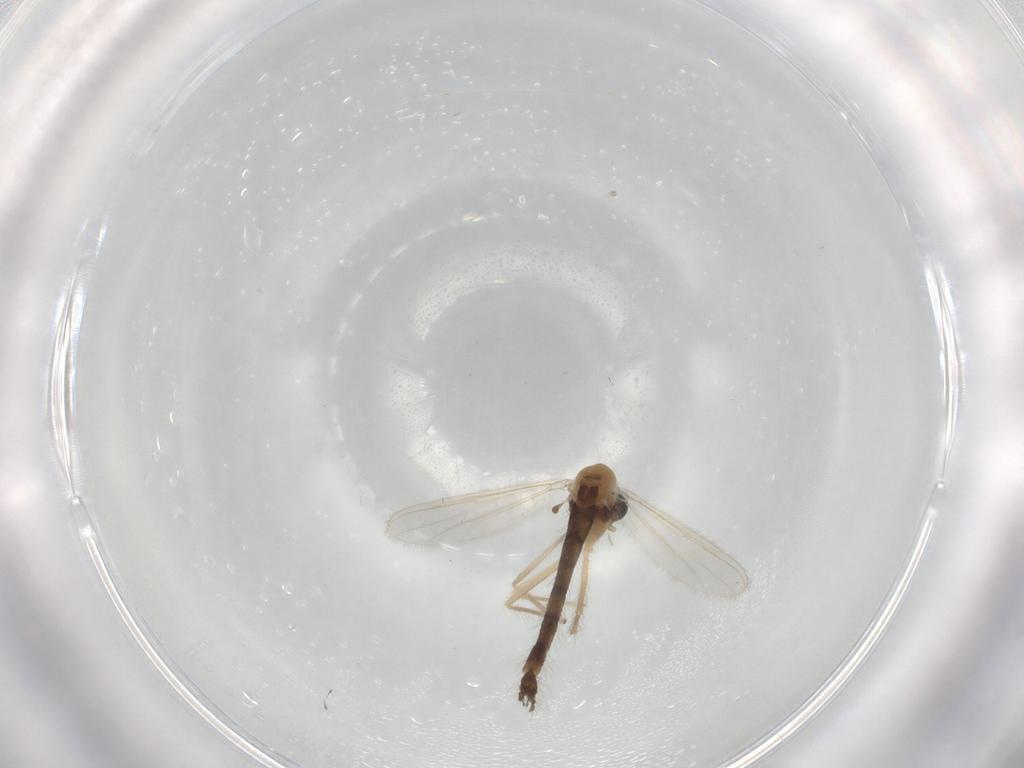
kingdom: Animalia
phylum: Arthropoda
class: Insecta
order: Diptera
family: Chironomidae
